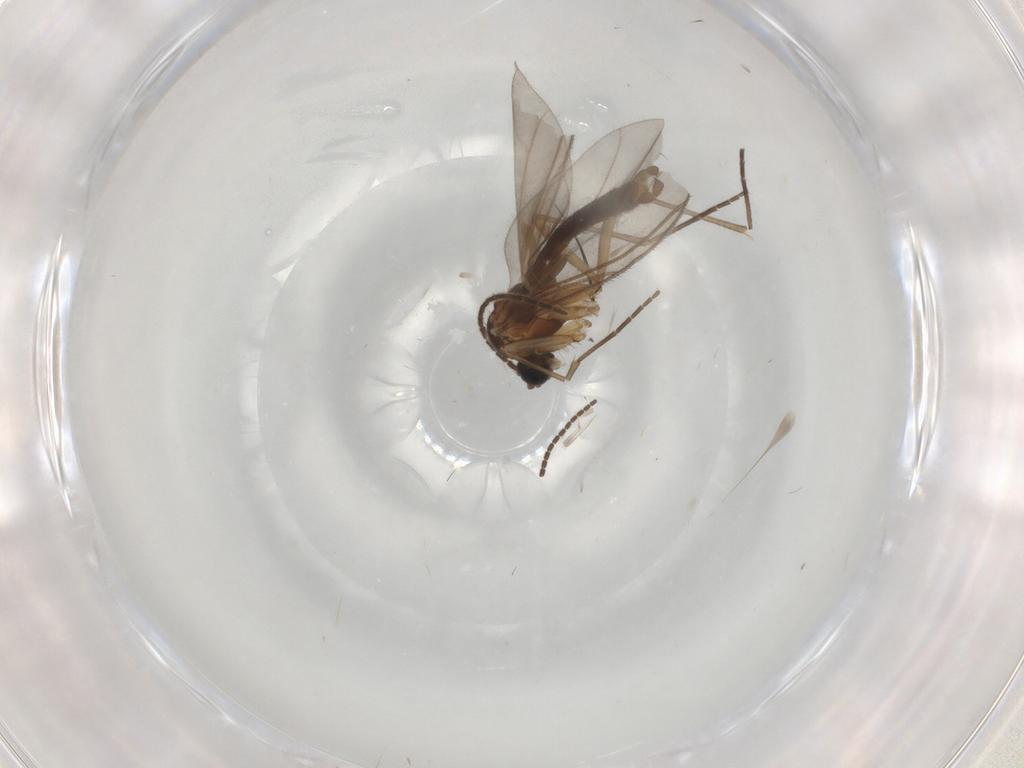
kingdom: Animalia
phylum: Arthropoda
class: Insecta
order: Diptera
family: Sciaridae
